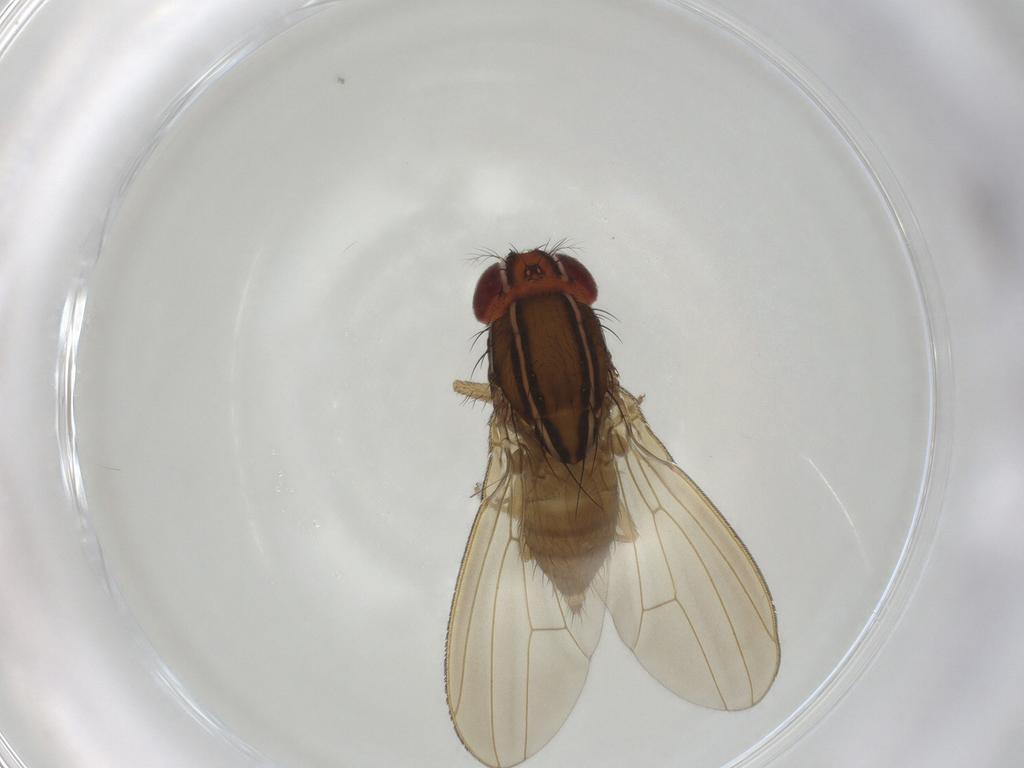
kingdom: Animalia
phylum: Arthropoda
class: Insecta
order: Diptera
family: Drosophilidae
